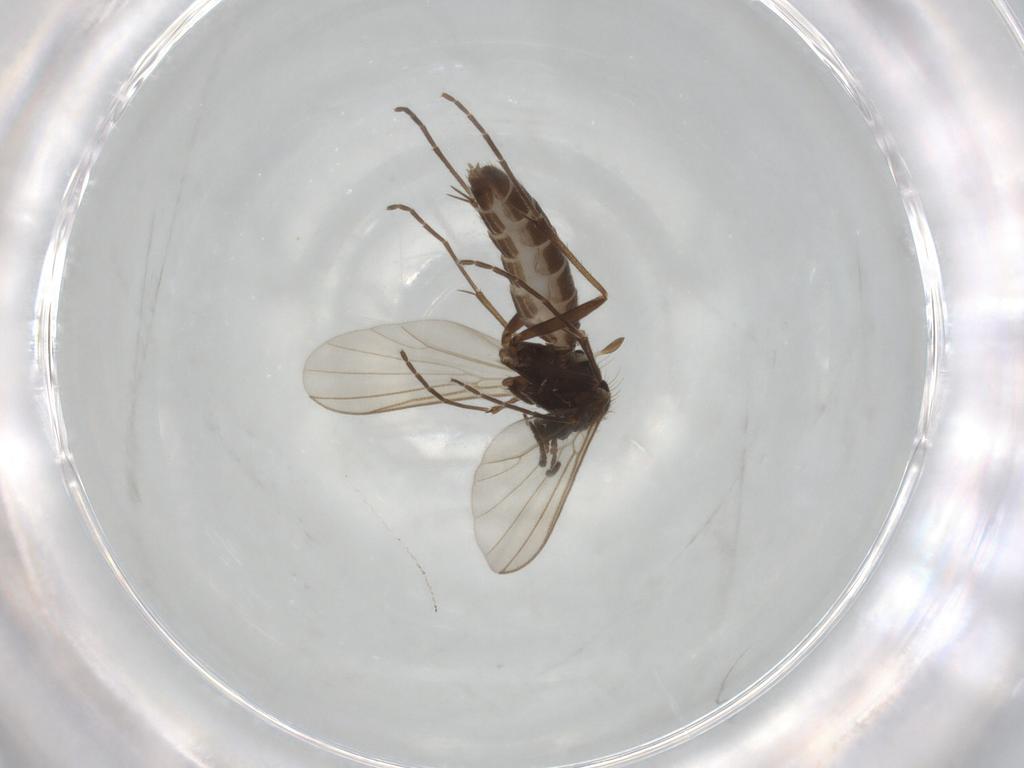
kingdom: Animalia
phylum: Arthropoda
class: Insecta
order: Diptera
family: Mycetophilidae
